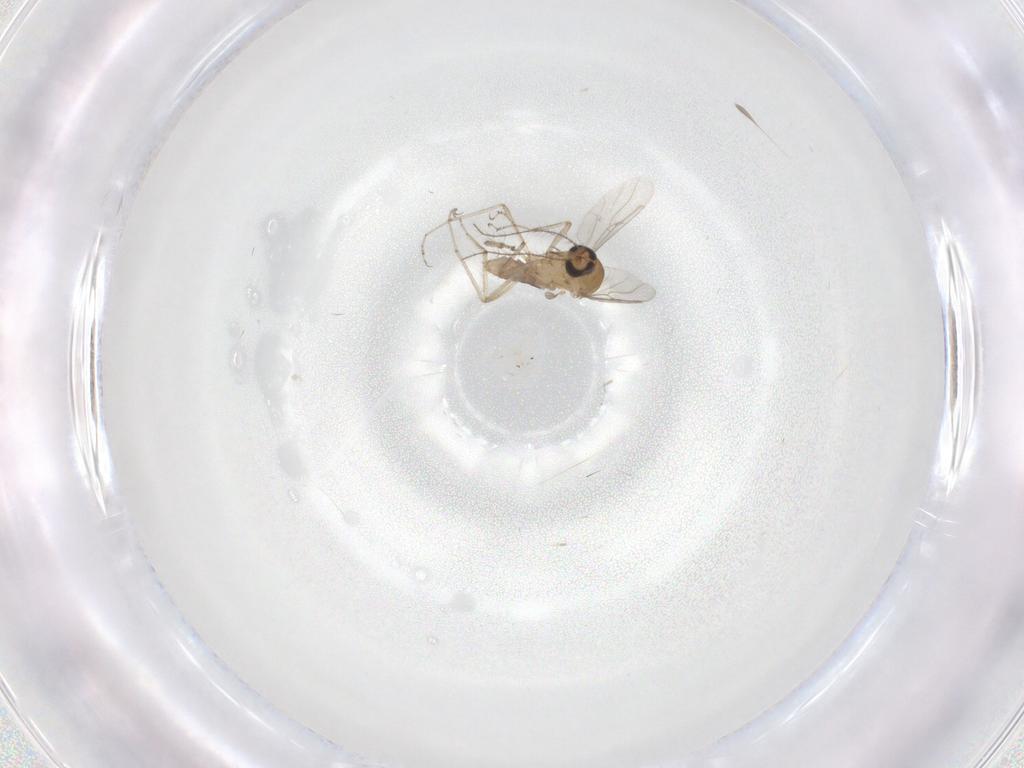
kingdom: Animalia
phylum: Arthropoda
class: Insecta
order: Diptera
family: Ceratopogonidae
